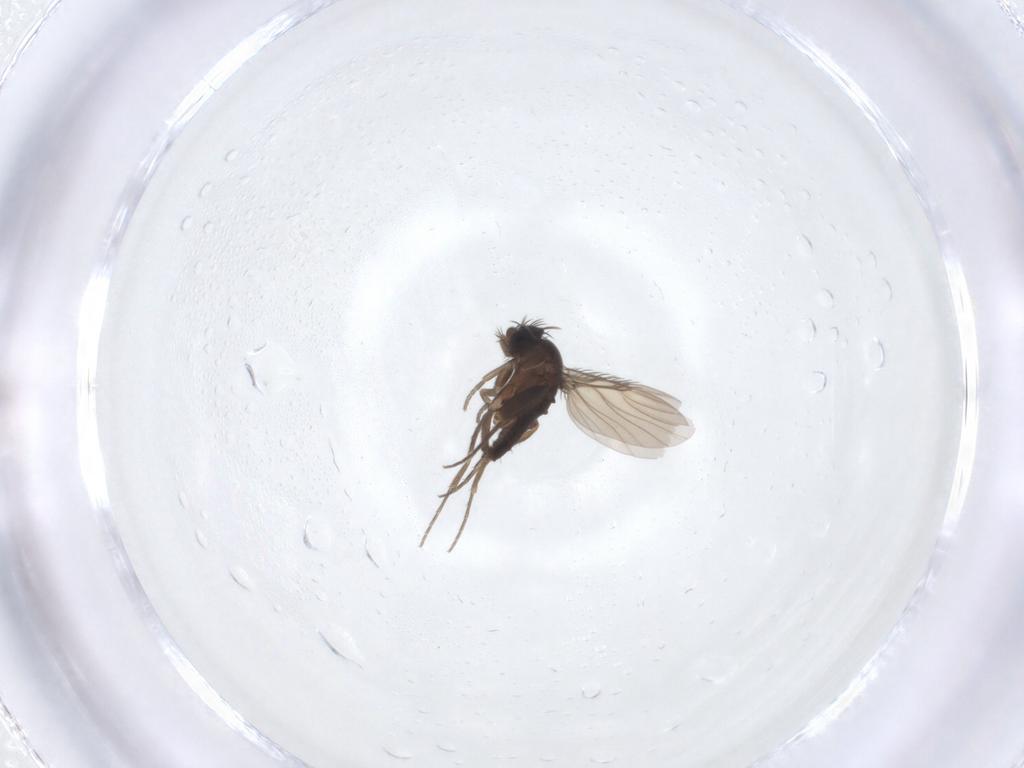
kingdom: Animalia
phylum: Arthropoda
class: Insecta
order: Diptera
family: Phoridae
